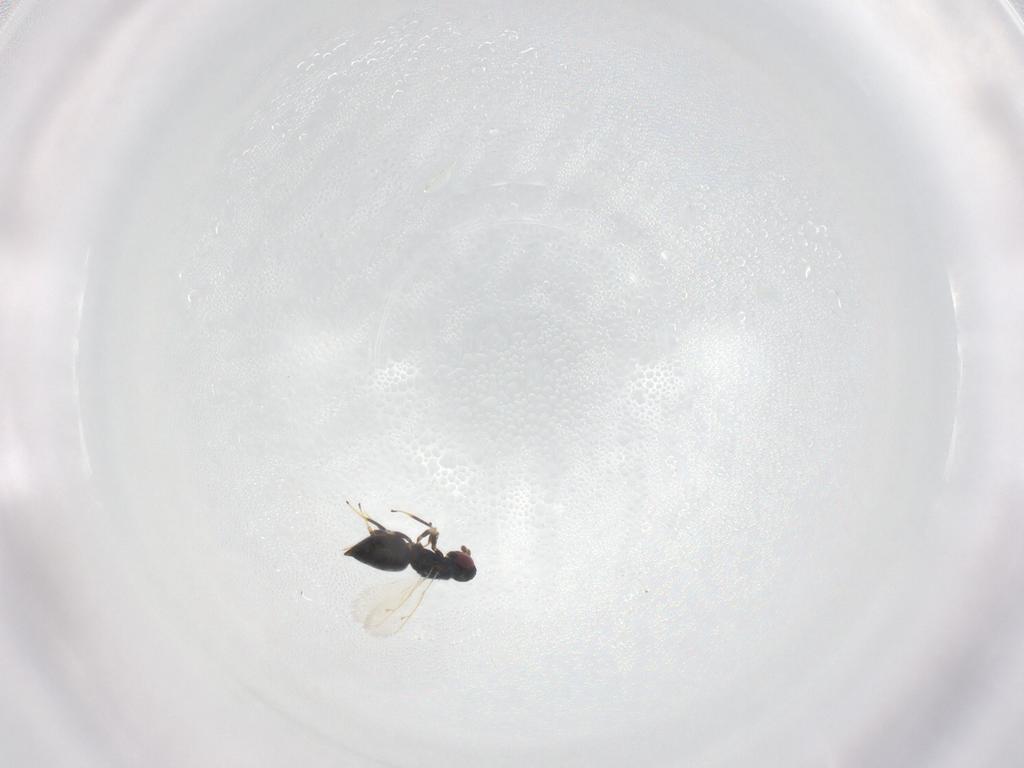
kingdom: Animalia
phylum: Arthropoda
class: Insecta
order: Hymenoptera
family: Tetracampidae
